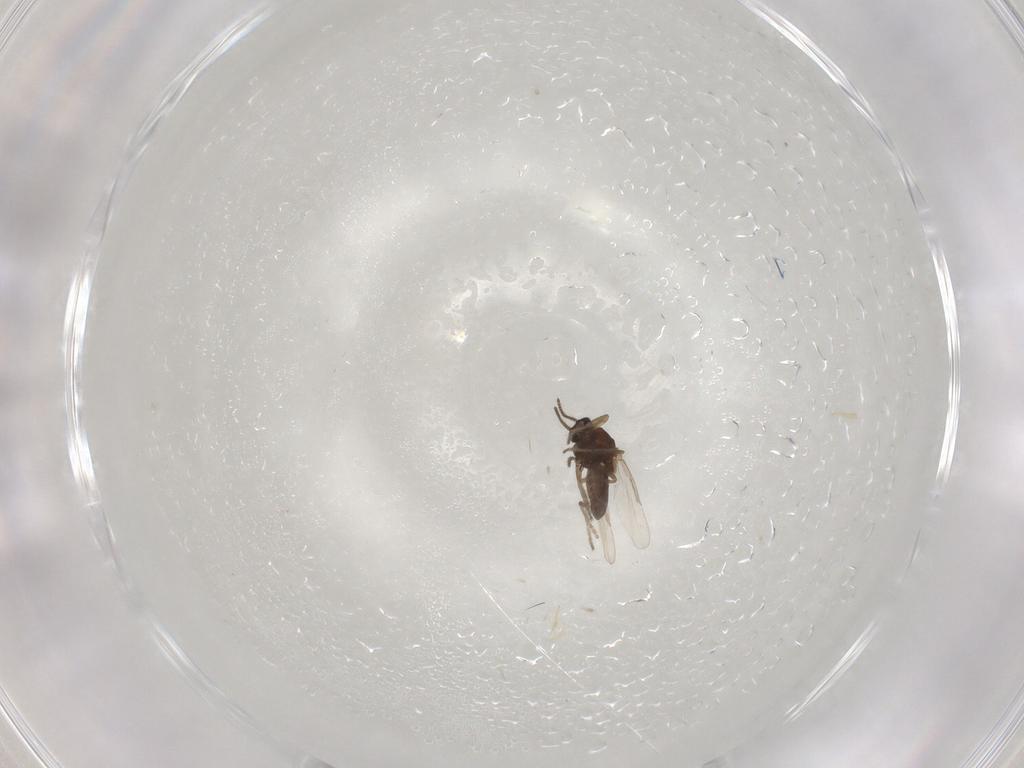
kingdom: Animalia
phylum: Arthropoda
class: Insecta
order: Diptera
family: Ceratopogonidae
